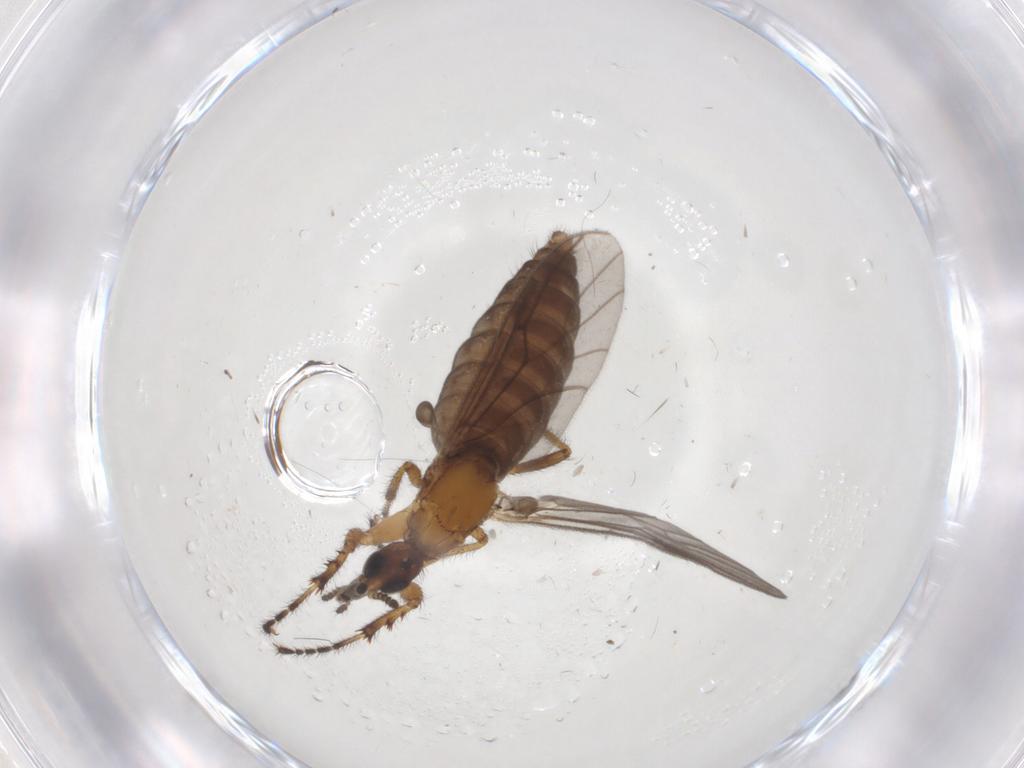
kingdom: Animalia
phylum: Arthropoda
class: Insecta
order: Diptera
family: Bibionidae
